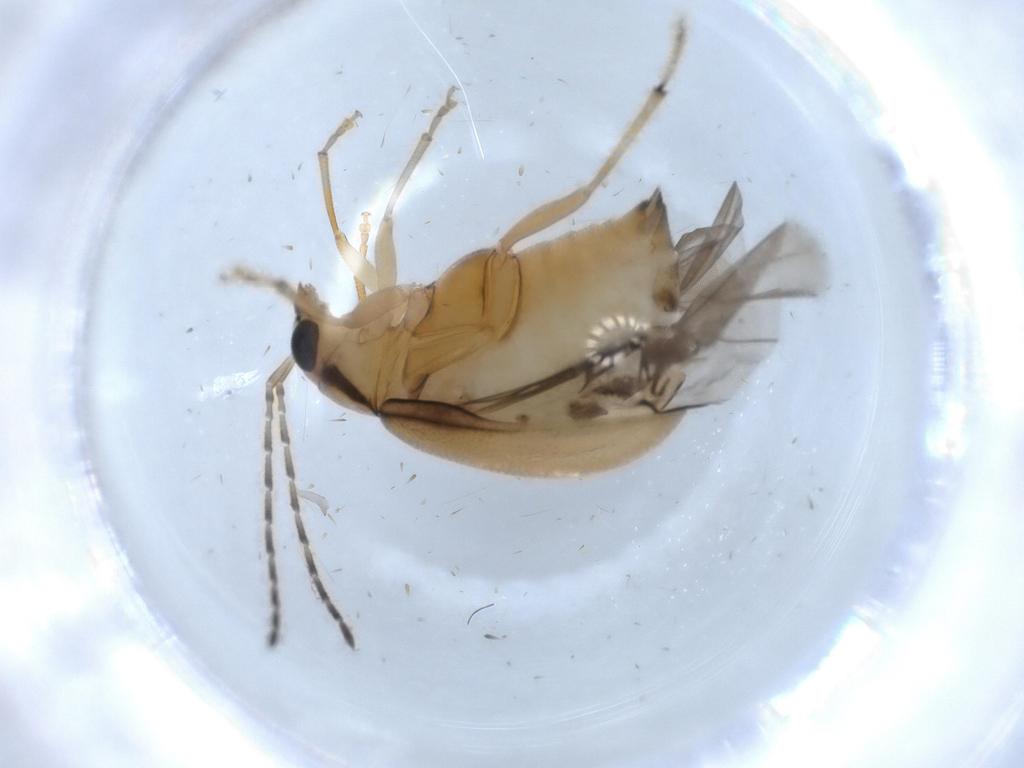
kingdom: Animalia
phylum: Arthropoda
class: Insecta
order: Coleoptera
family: Chrysomelidae
